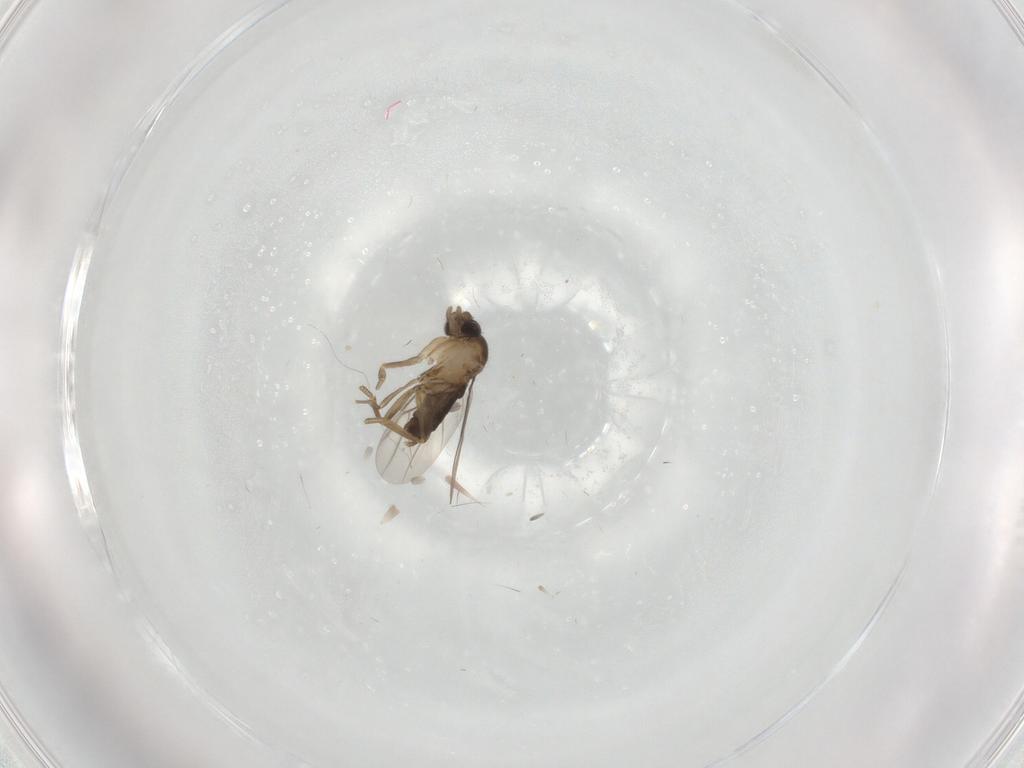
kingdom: Animalia
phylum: Arthropoda
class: Insecta
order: Diptera
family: Phoridae
